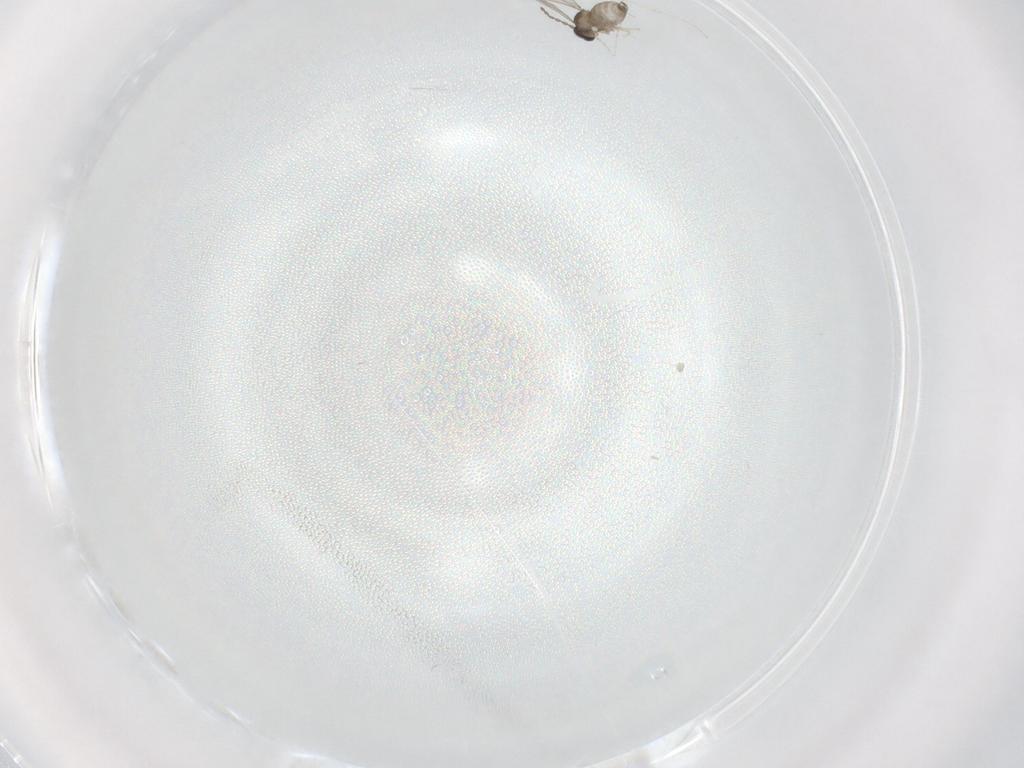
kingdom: Animalia
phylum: Arthropoda
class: Insecta
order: Diptera
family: Cecidomyiidae
